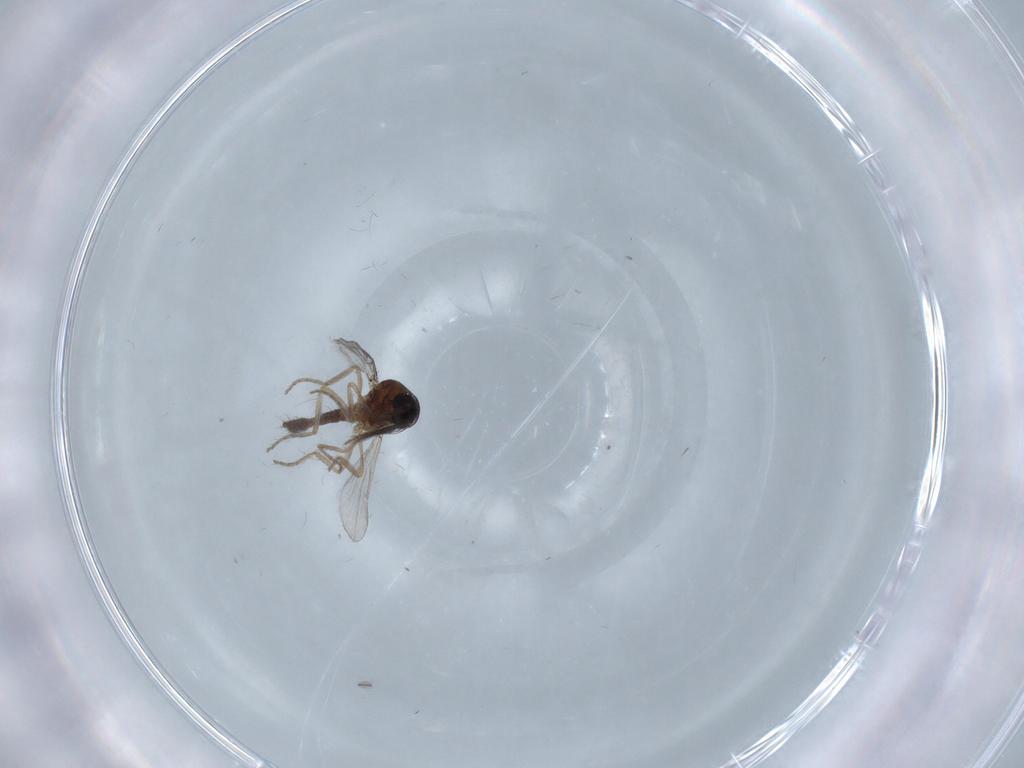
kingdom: Animalia
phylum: Arthropoda
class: Insecta
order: Diptera
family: Ceratopogonidae
